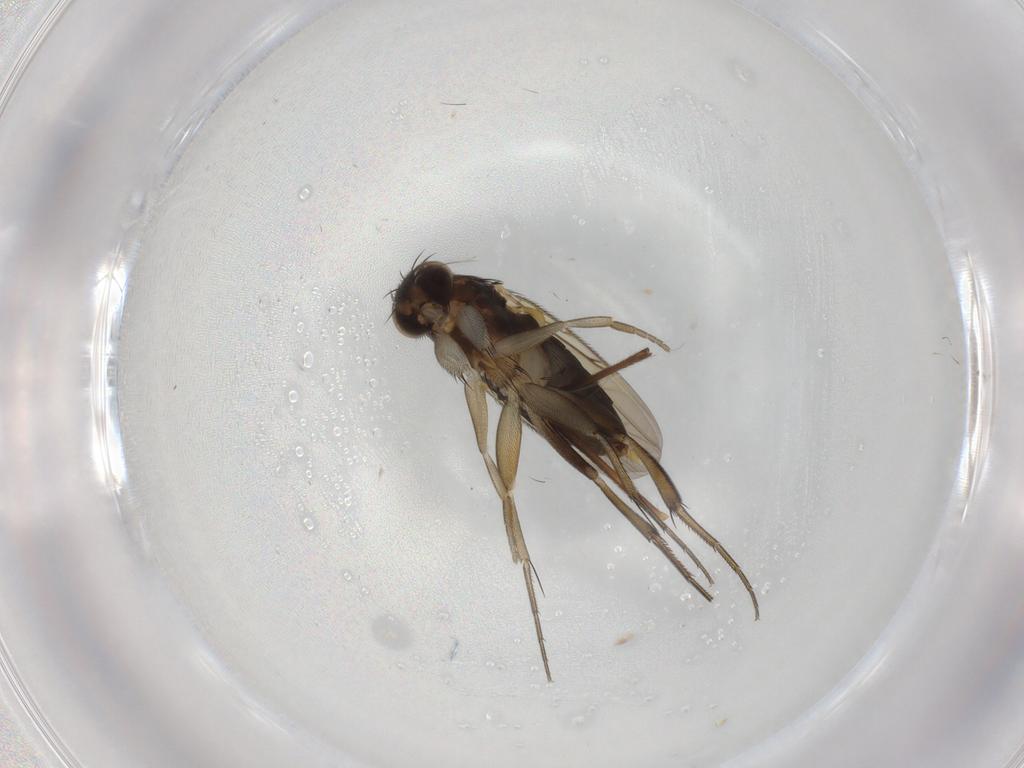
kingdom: Animalia
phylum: Arthropoda
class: Insecta
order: Diptera
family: Phoridae
